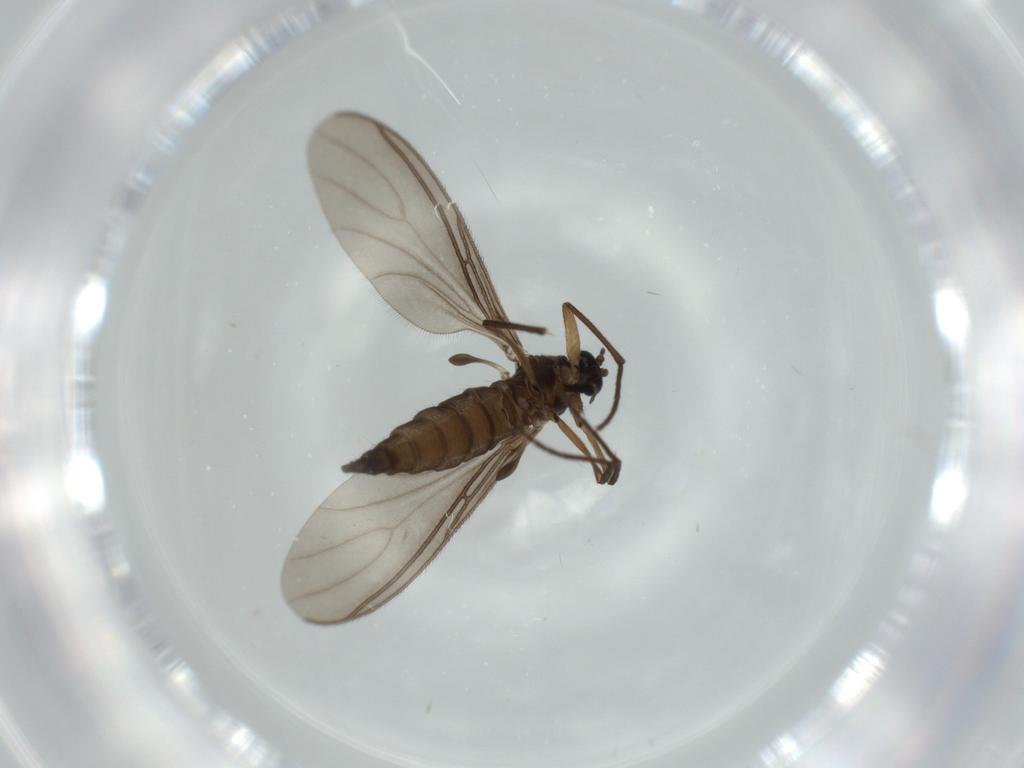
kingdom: Animalia
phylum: Arthropoda
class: Insecta
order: Diptera
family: Sciaridae
